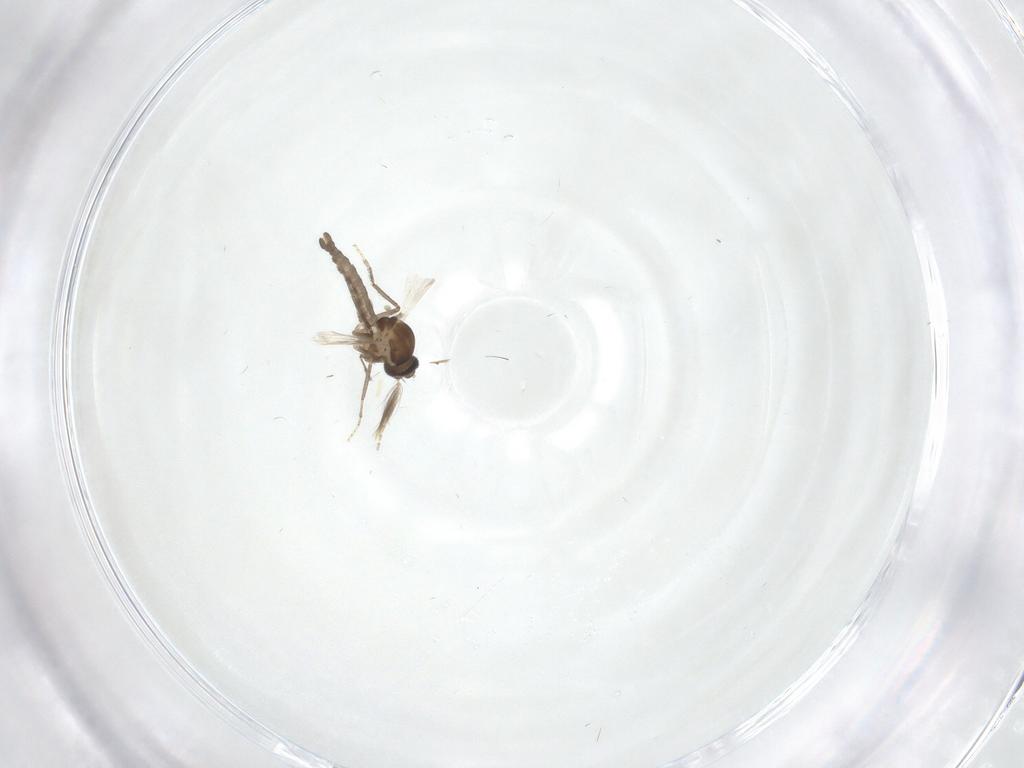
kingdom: Animalia
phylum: Arthropoda
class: Insecta
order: Diptera
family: Ceratopogonidae
